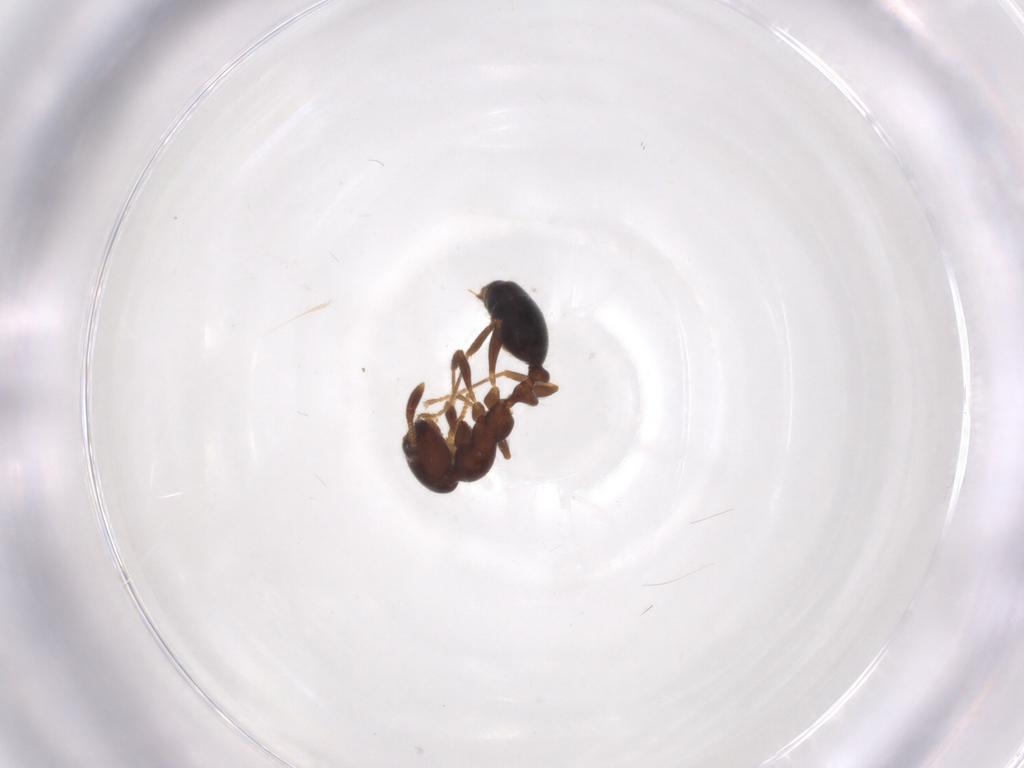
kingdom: Animalia
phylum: Arthropoda
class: Insecta
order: Hymenoptera
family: Formicidae
